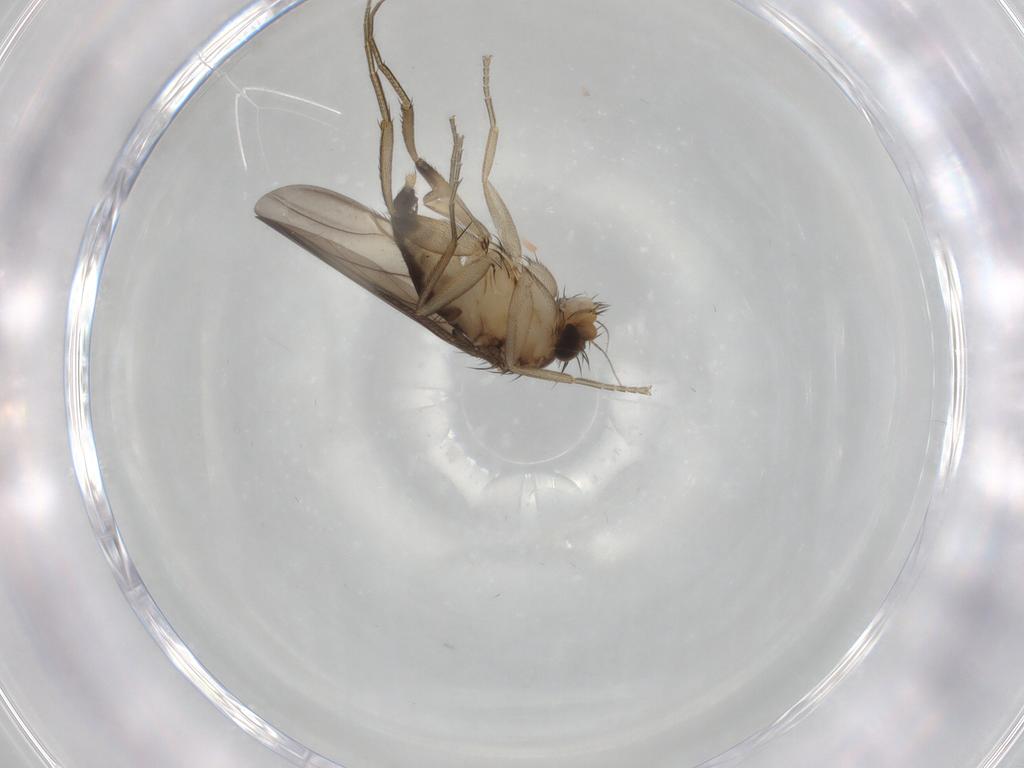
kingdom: Animalia
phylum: Arthropoda
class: Insecta
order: Diptera
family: Phoridae
